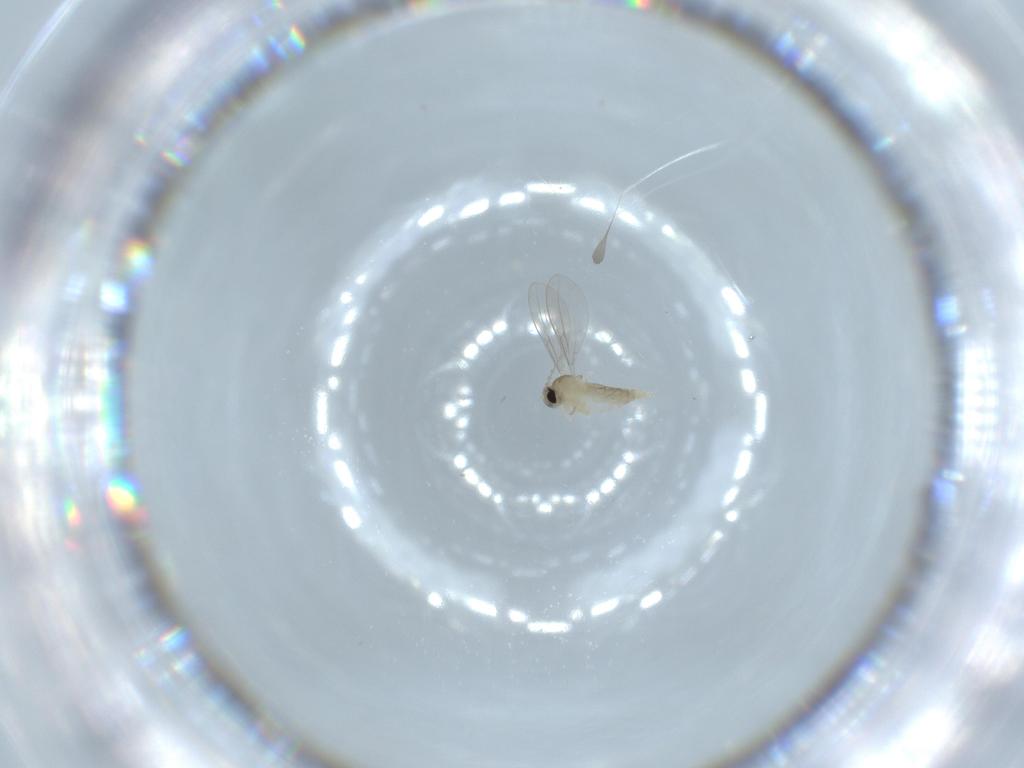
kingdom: Animalia
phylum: Arthropoda
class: Insecta
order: Diptera
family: Cecidomyiidae
